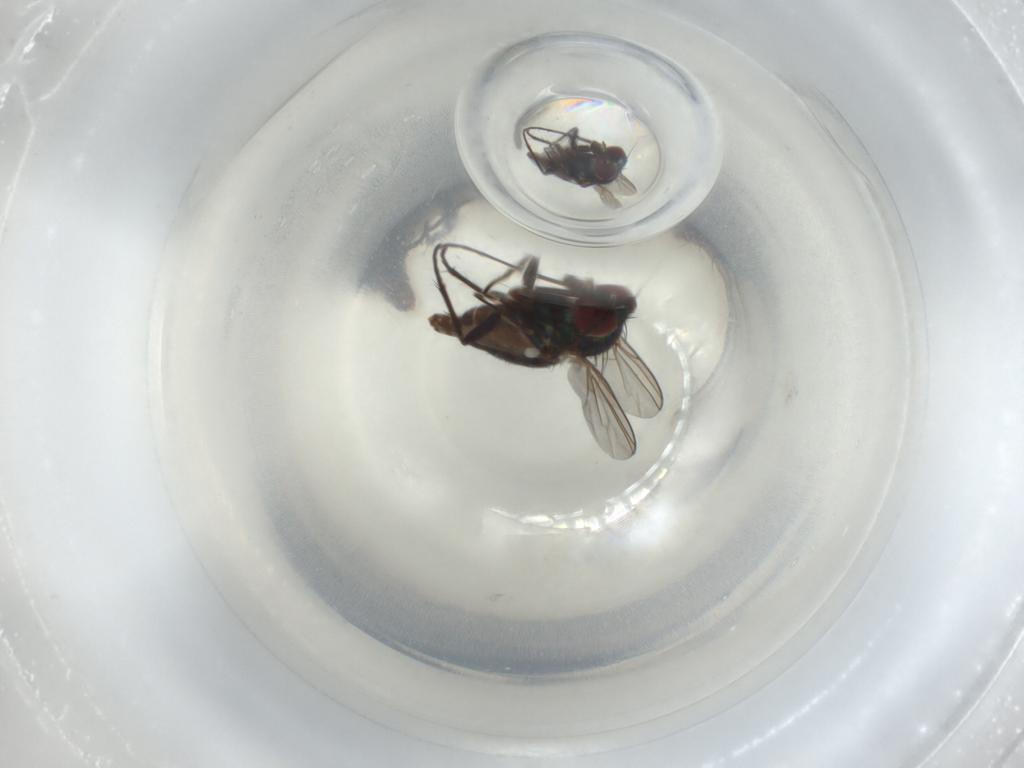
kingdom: Animalia
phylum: Arthropoda
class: Insecta
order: Diptera
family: Dolichopodidae
